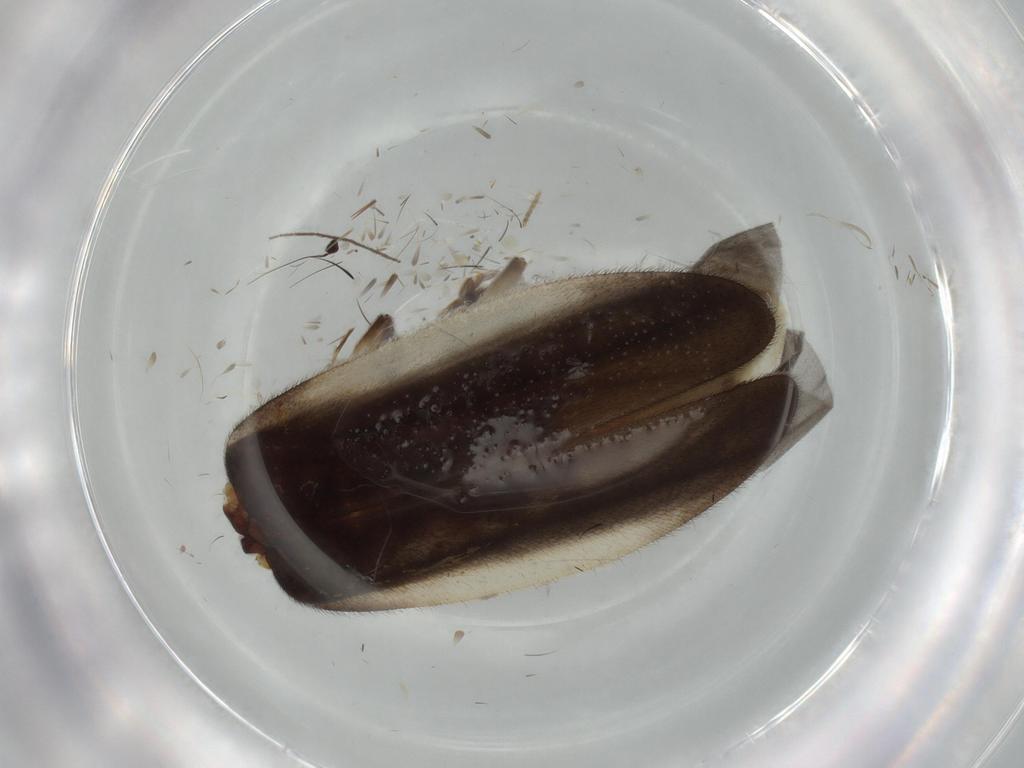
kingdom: Animalia
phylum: Arthropoda
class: Insecta
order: Coleoptera
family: Lampyridae
